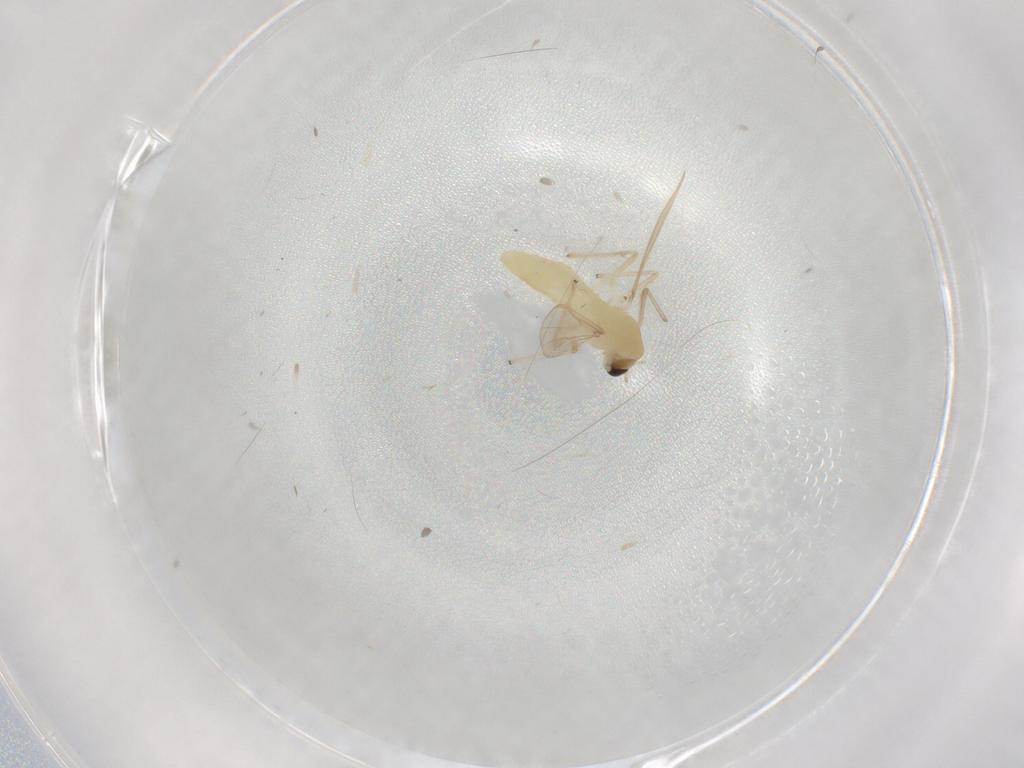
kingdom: Animalia
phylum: Arthropoda
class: Insecta
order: Diptera
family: Chironomidae
